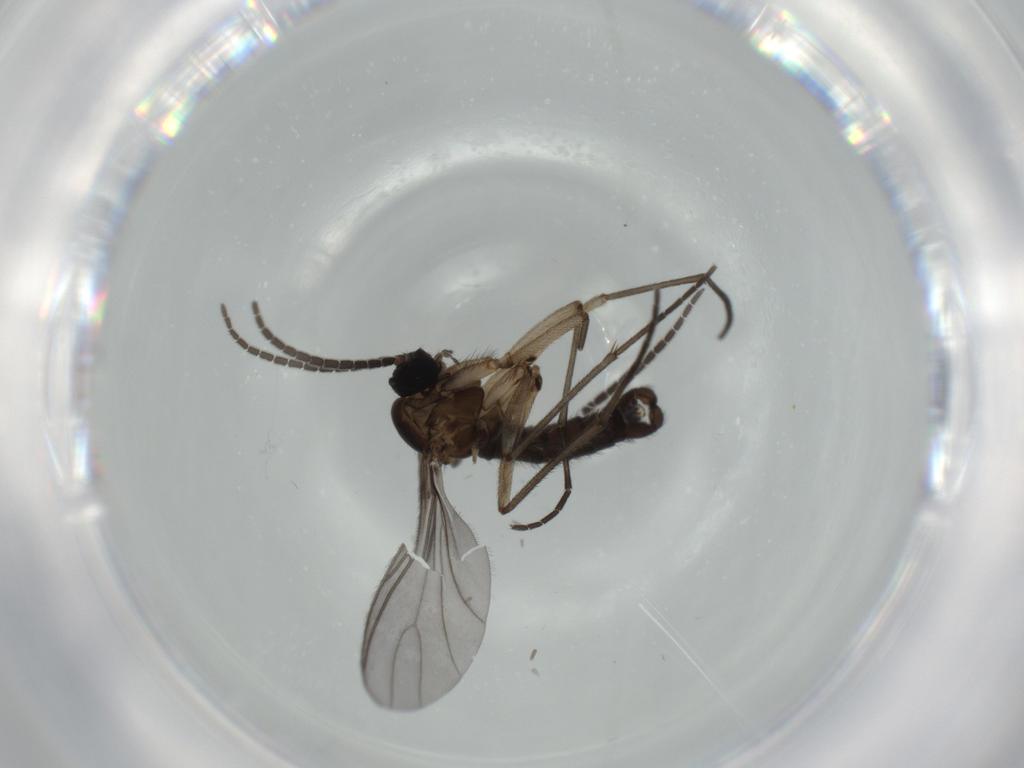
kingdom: Animalia
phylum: Arthropoda
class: Insecta
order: Diptera
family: Sciaridae
